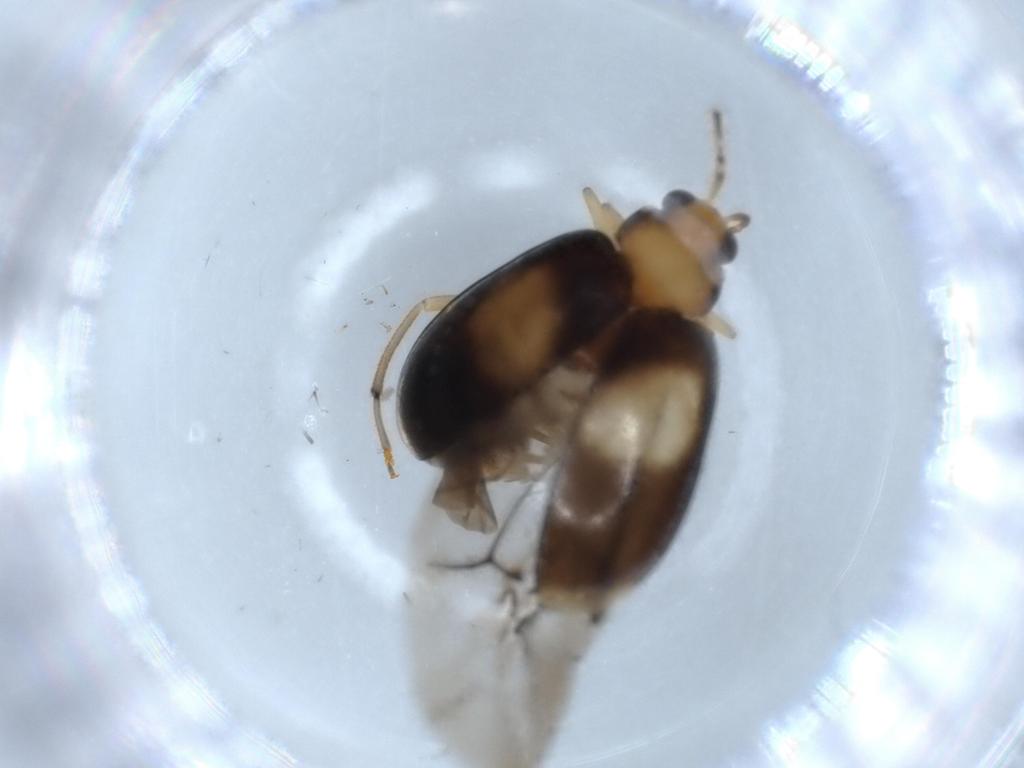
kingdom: Animalia
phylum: Arthropoda
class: Insecta
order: Coleoptera
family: Chrysomelidae
